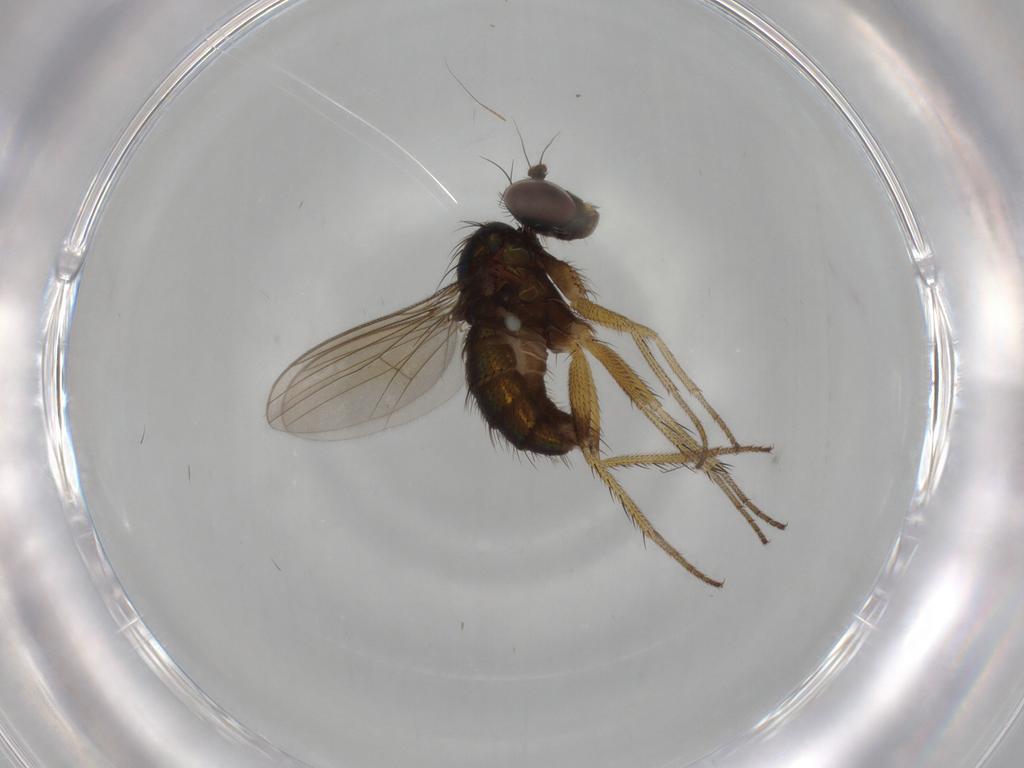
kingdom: Animalia
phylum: Arthropoda
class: Insecta
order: Diptera
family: Dolichopodidae
